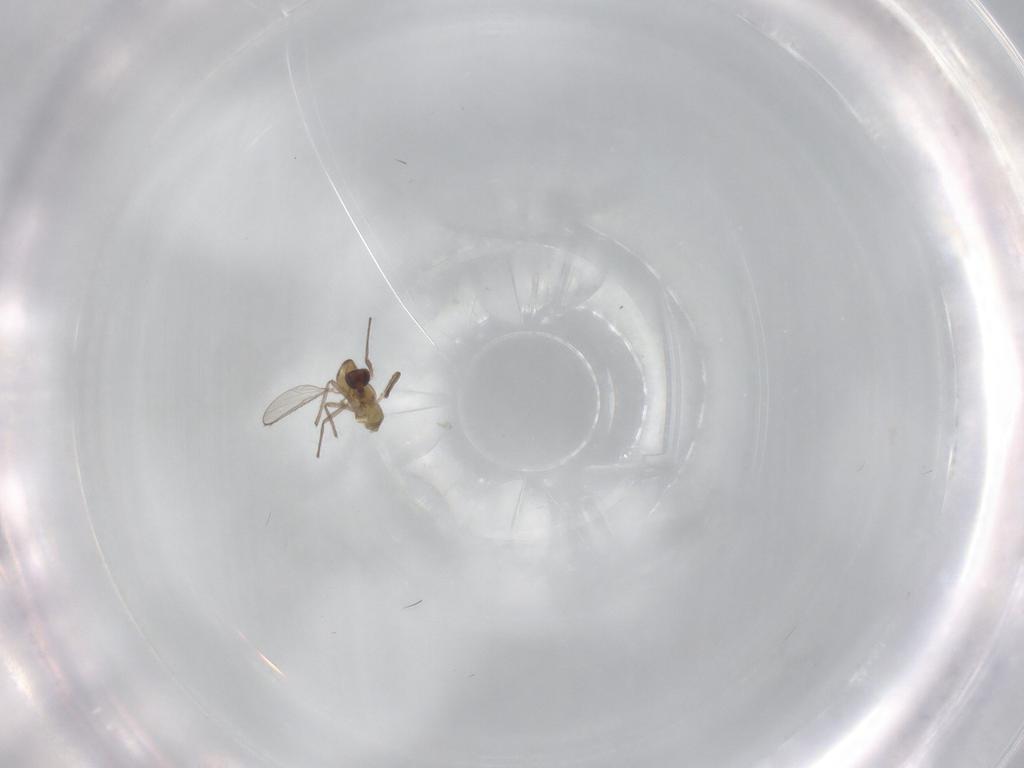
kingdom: Animalia
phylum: Arthropoda
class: Insecta
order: Diptera
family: Chironomidae
